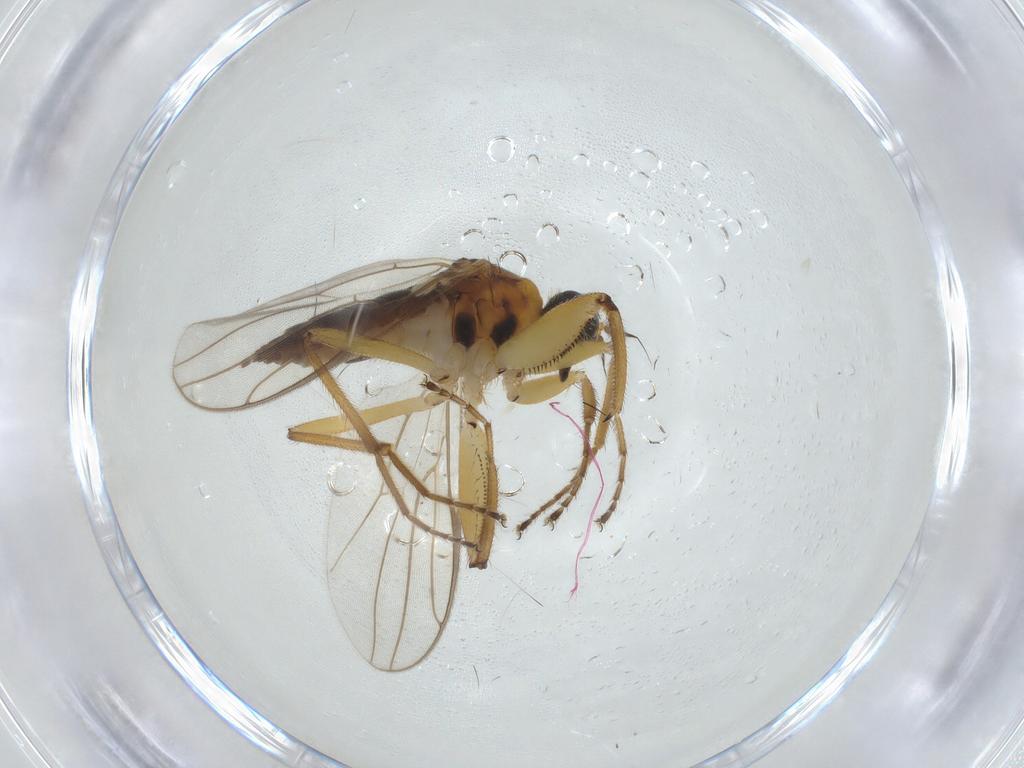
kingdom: Animalia
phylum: Arthropoda
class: Insecta
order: Diptera
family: Hybotidae
